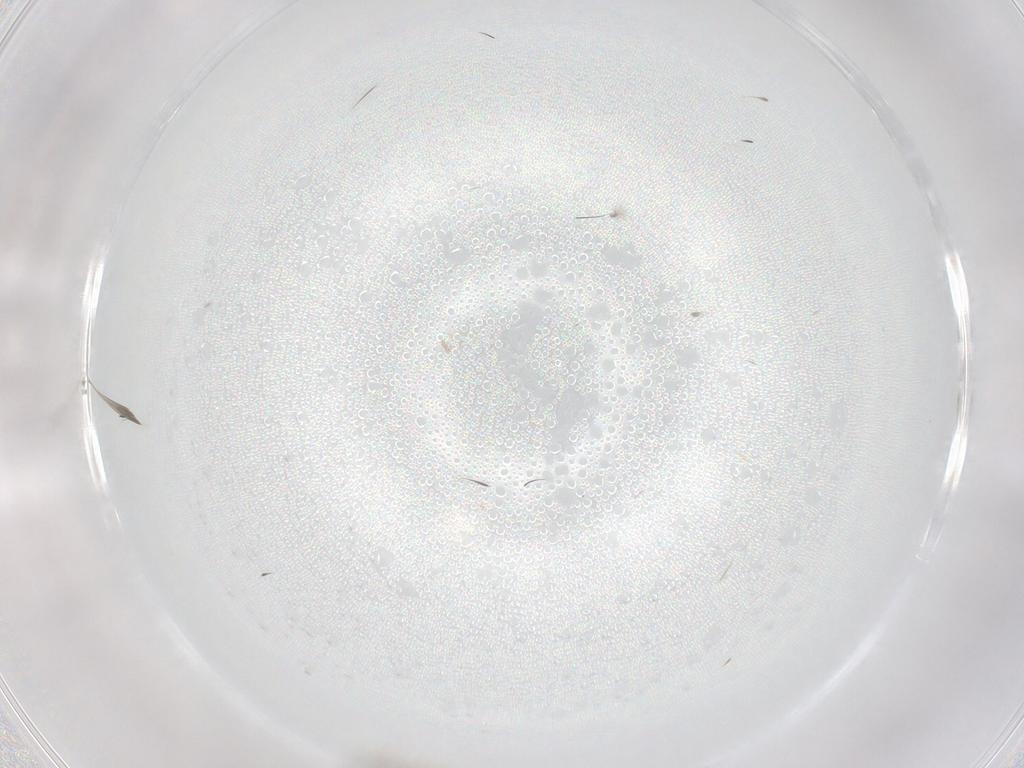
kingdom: Animalia
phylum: Arthropoda
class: Insecta
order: Diptera
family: Cecidomyiidae
